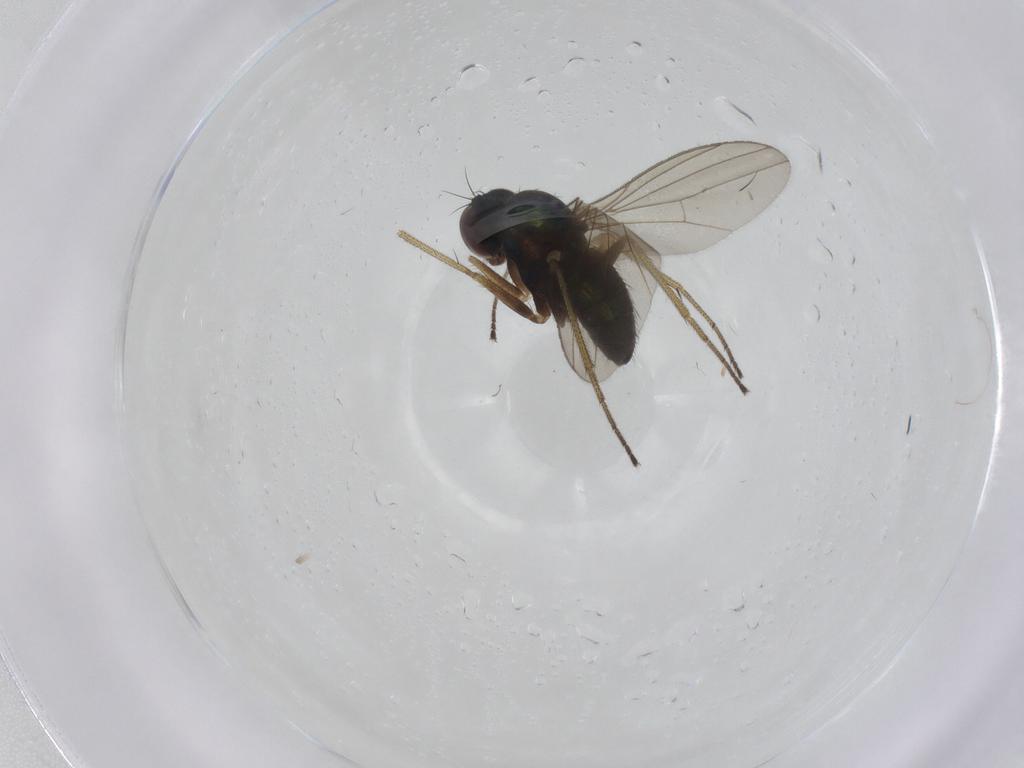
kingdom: Animalia
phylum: Arthropoda
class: Insecta
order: Diptera
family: Dolichopodidae
